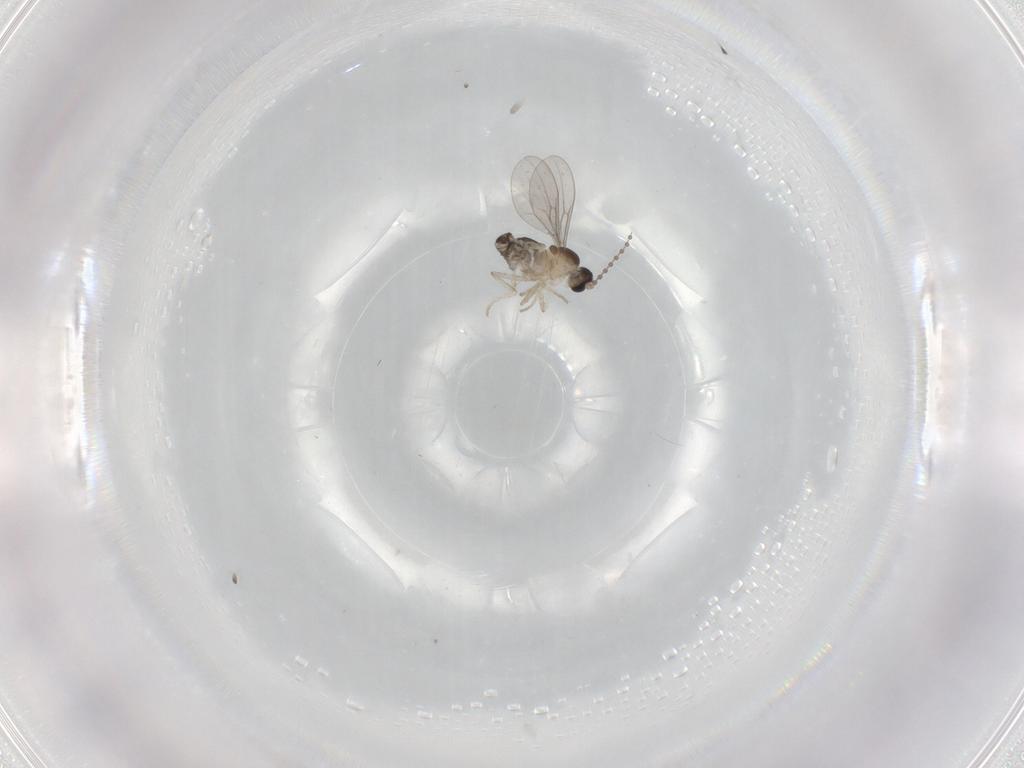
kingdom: Animalia
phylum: Arthropoda
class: Insecta
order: Diptera
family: Cecidomyiidae
